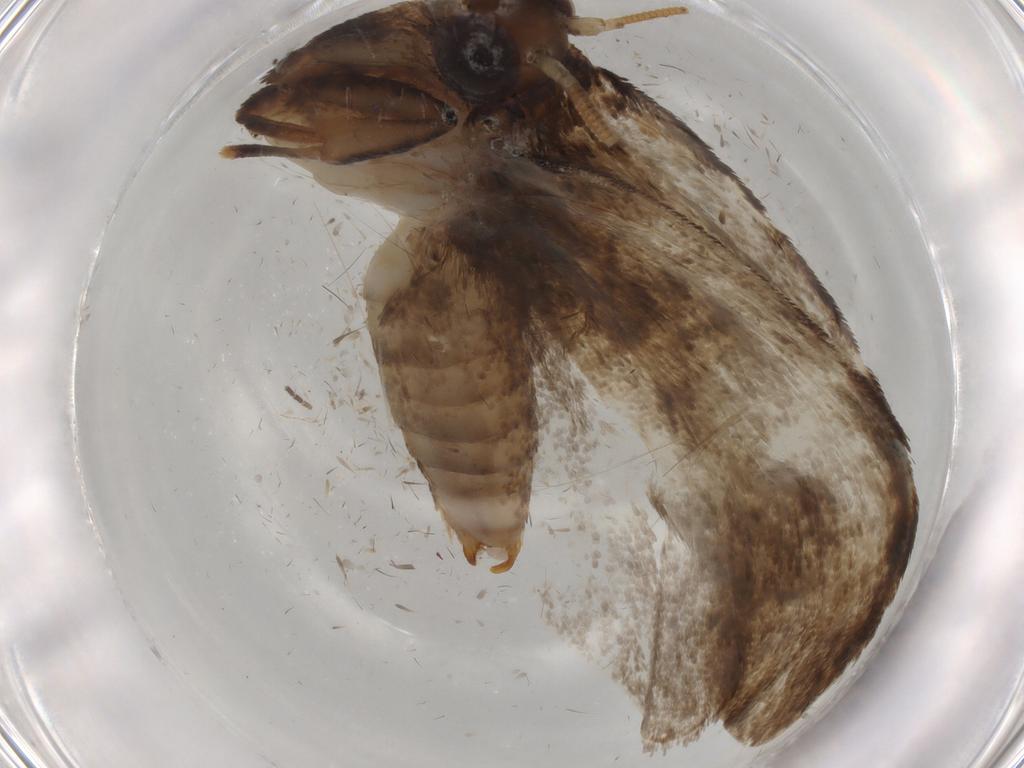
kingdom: Animalia
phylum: Arthropoda
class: Insecta
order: Lepidoptera
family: Tineidae
